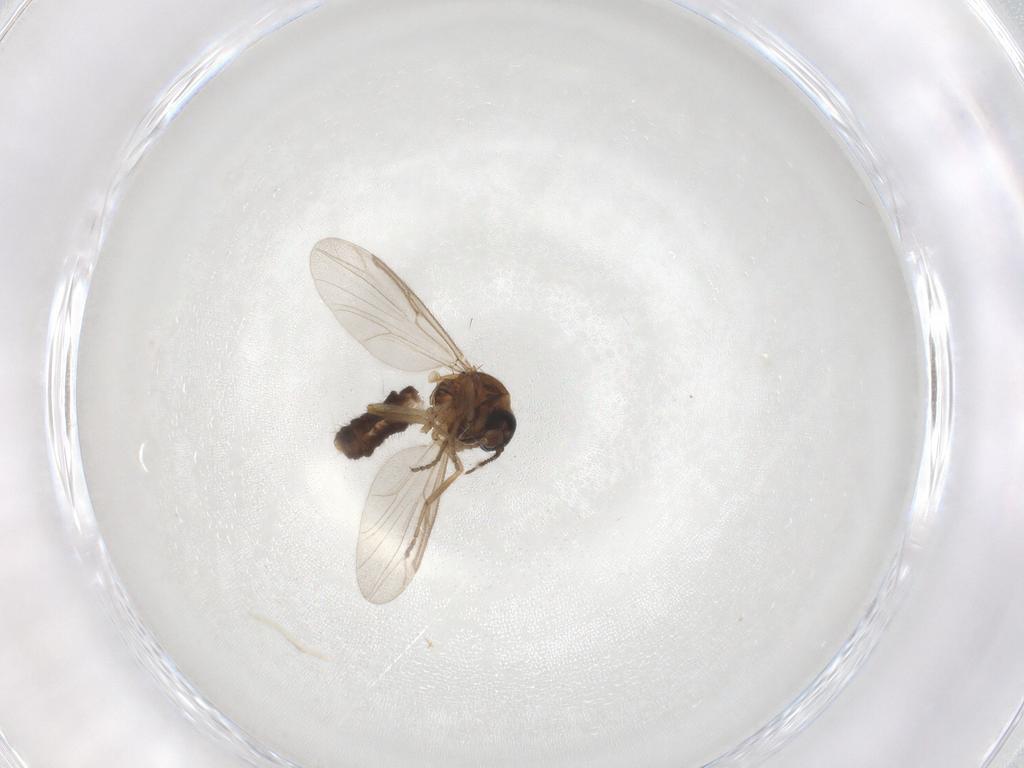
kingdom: Animalia
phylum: Arthropoda
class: Insecta
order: Diptera
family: Ceratopogonidae
